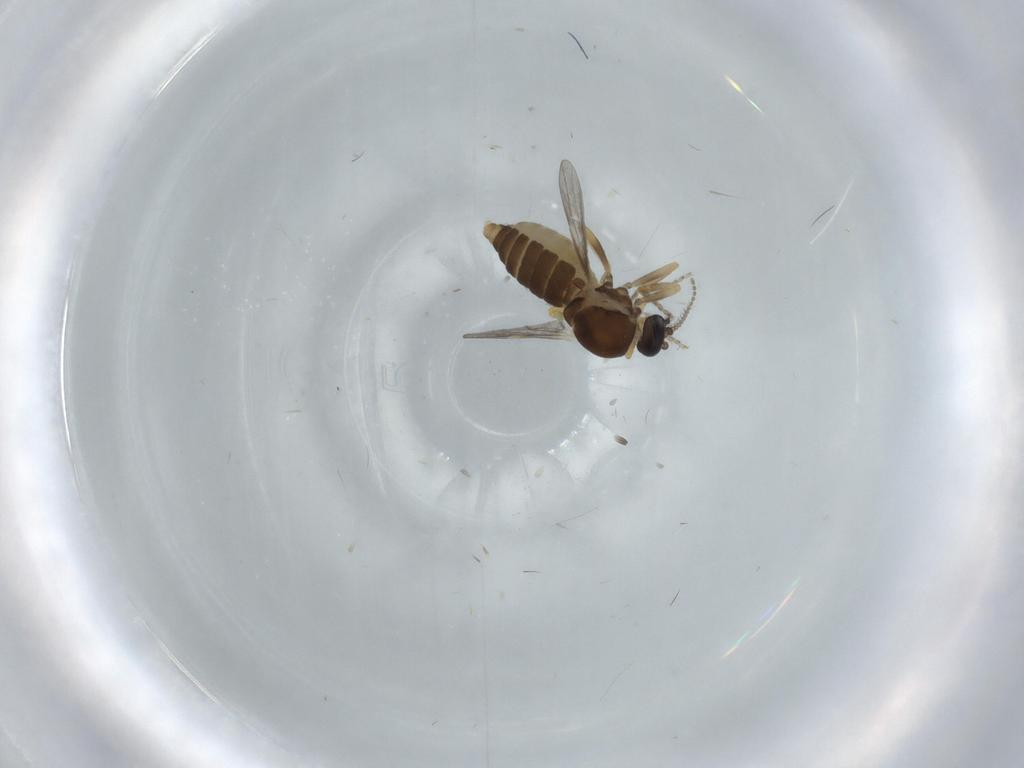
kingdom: Animalia
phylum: Arthropoda
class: Insecta
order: Diptera
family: Ceratopogonidae
